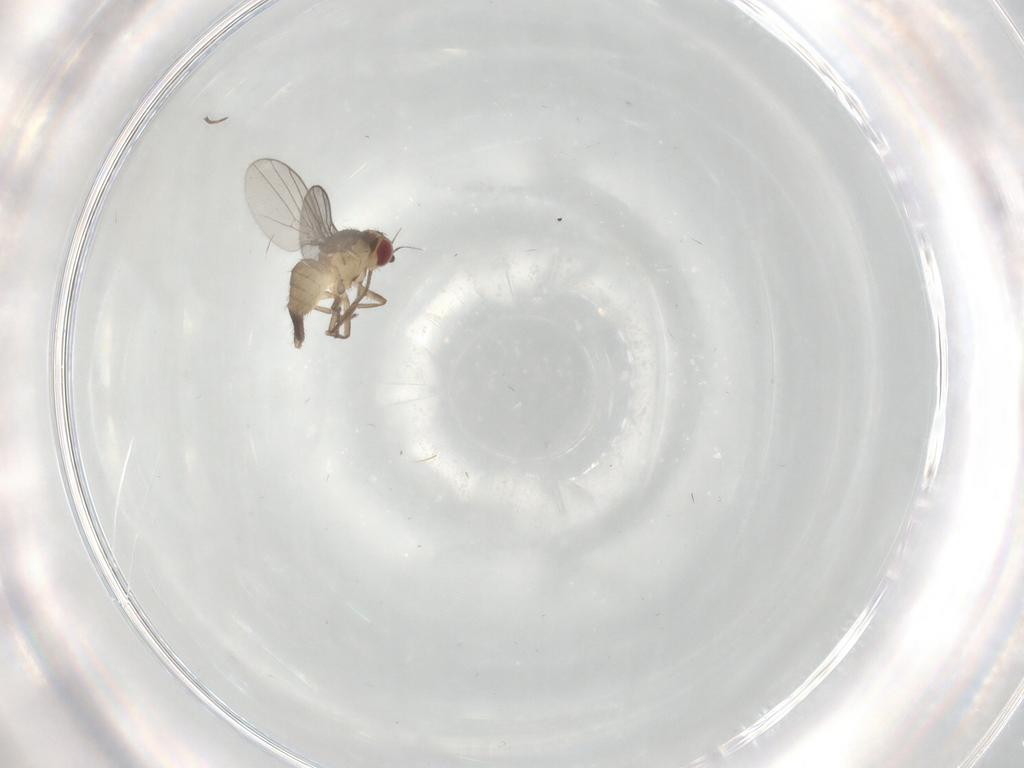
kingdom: Animalia
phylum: Arthropoda
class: Insecta
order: Diptera
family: Agromyzidae
